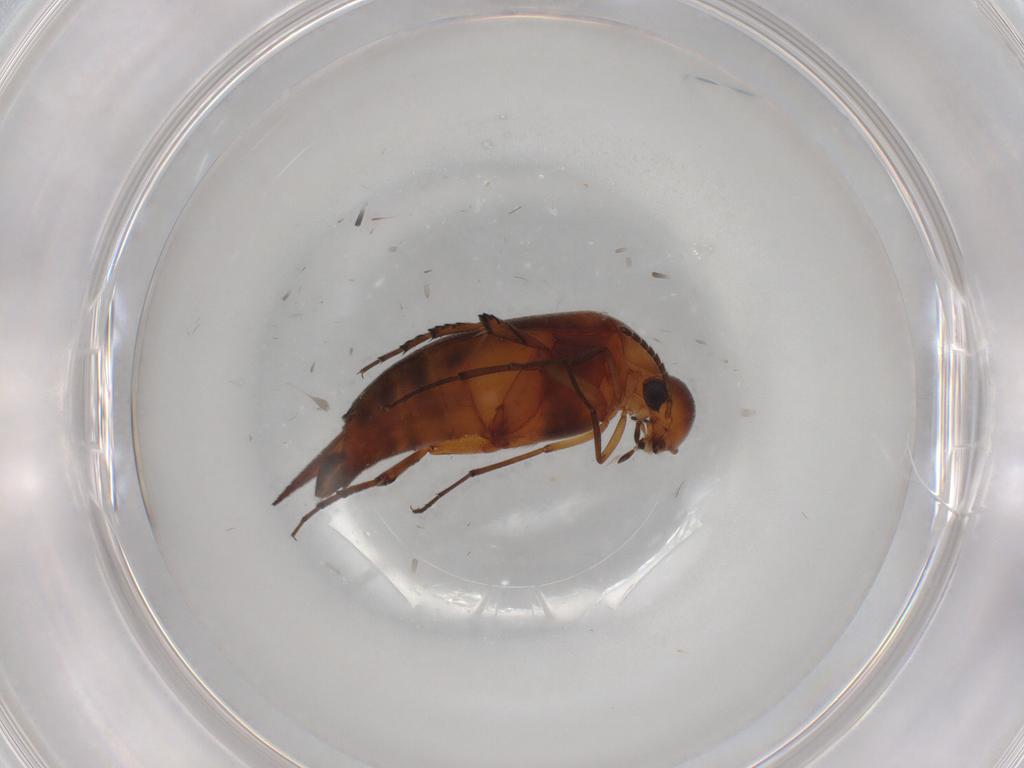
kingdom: Animalia
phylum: Arthropoda
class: Insecta
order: Coleoptera
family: Mordellidae
